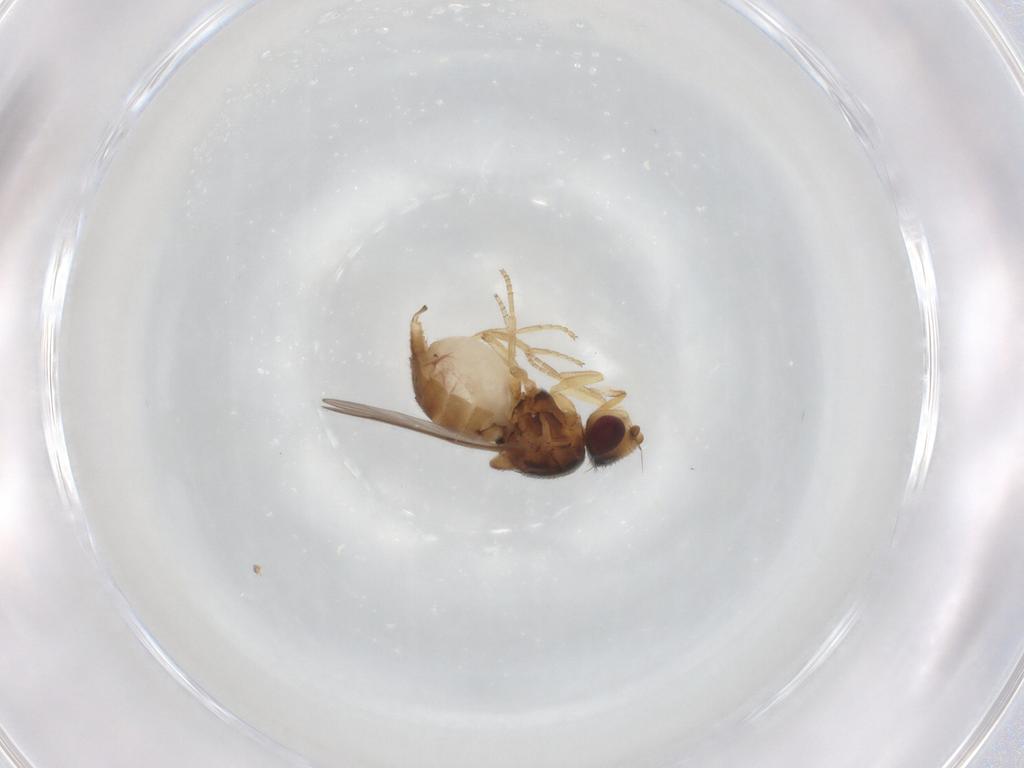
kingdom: Animalia
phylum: Arthropoda
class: Insecta
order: Diptera
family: Chloropidae
